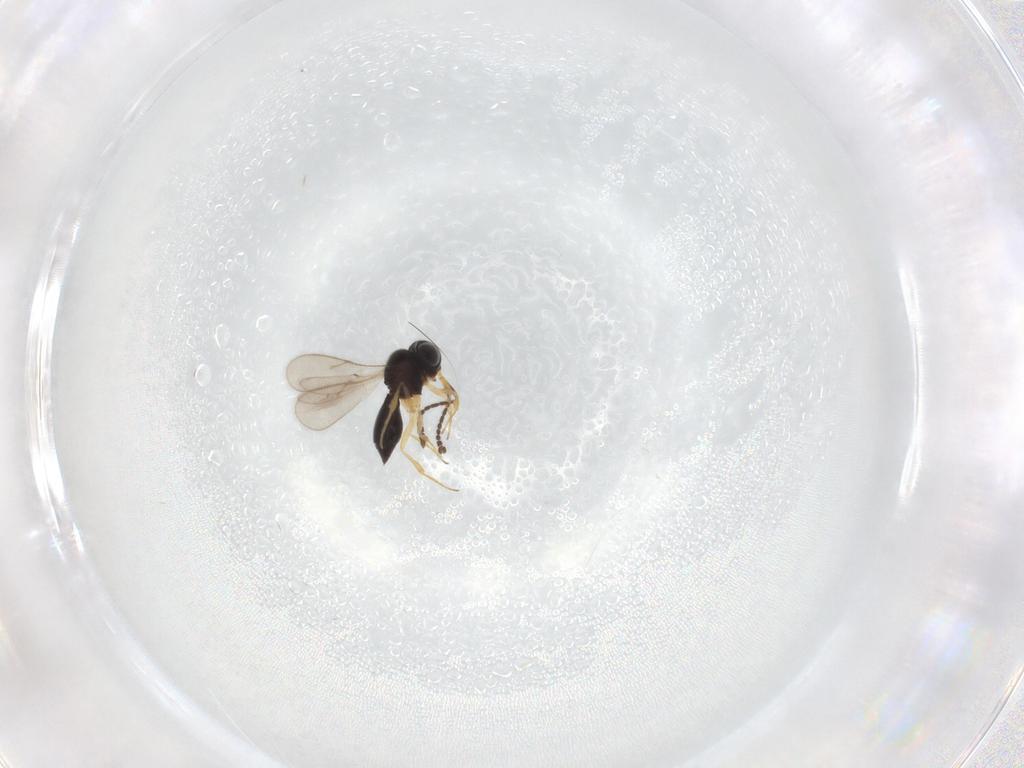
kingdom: Animalia
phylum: Arthropoda
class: Insecta
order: Hymenoptera
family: Scelionidae
